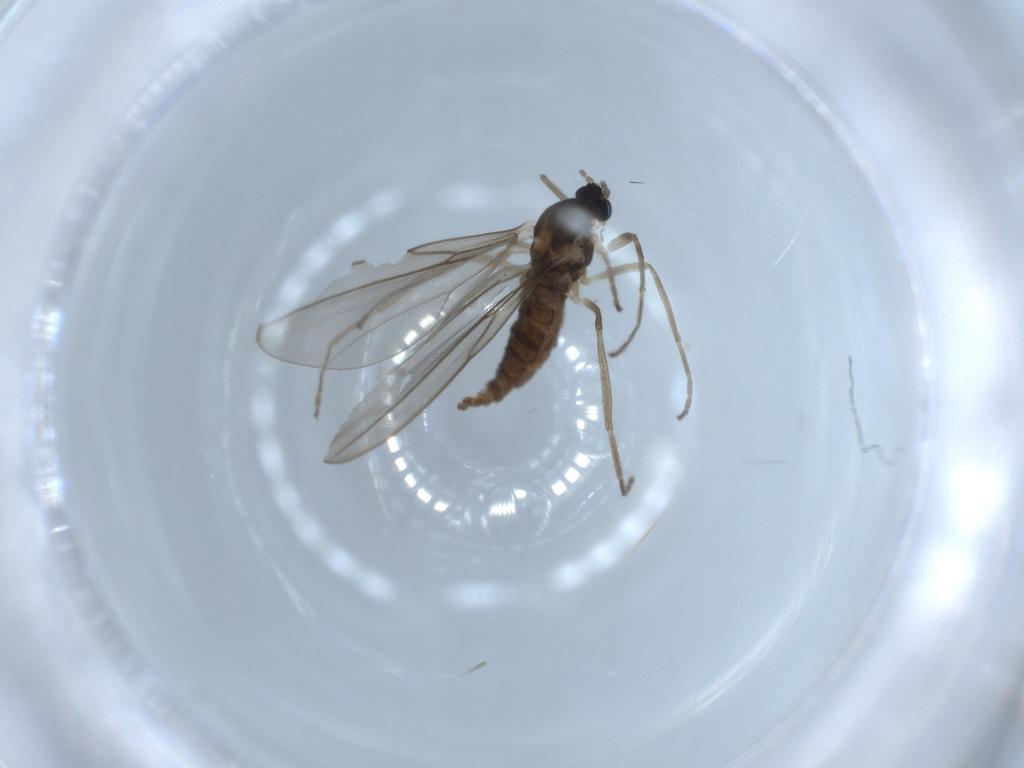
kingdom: Animalia
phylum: Arthropoda
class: Insecta
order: Diptera
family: Cecidomyiidae
